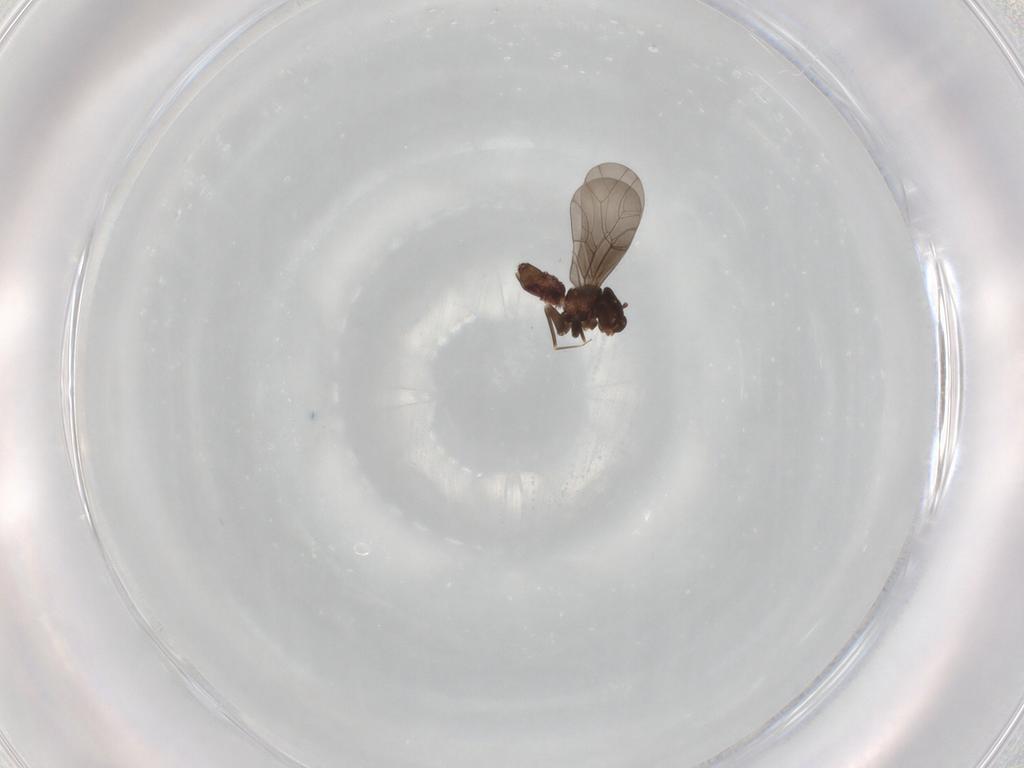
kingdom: Animalia
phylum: Arthropoda
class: Insecta
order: Psocodea
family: Lepidopsocidae
